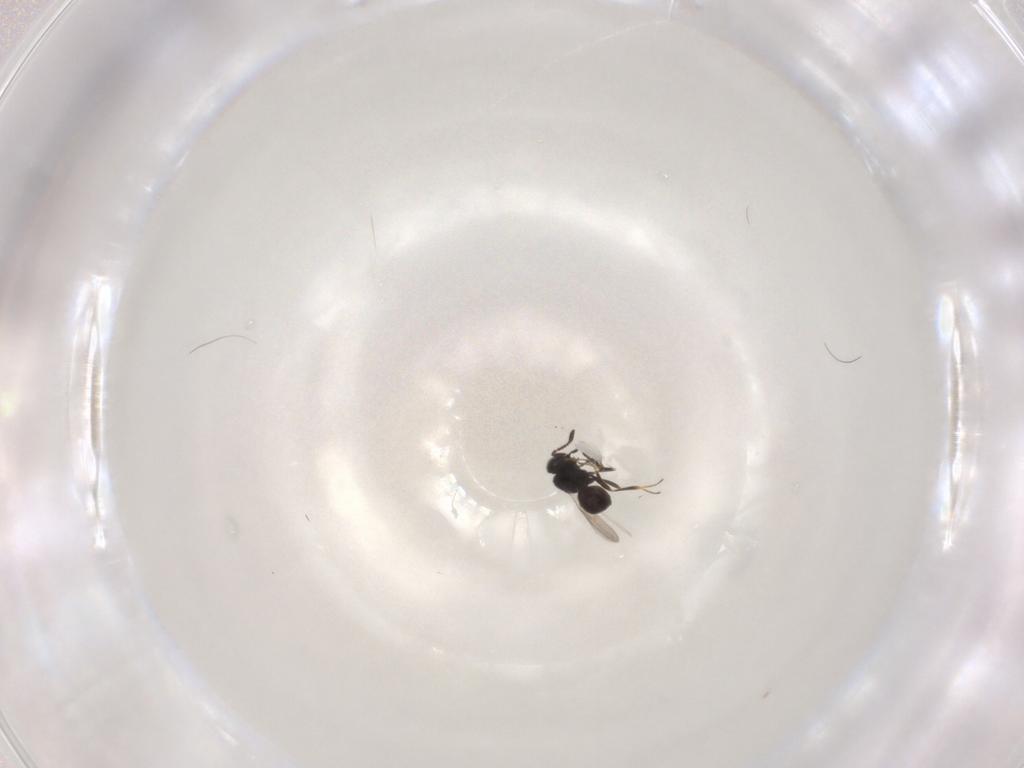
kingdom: Animalia
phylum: Arthropoda
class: Insecta
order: Hymenoptera
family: Scelionidae
